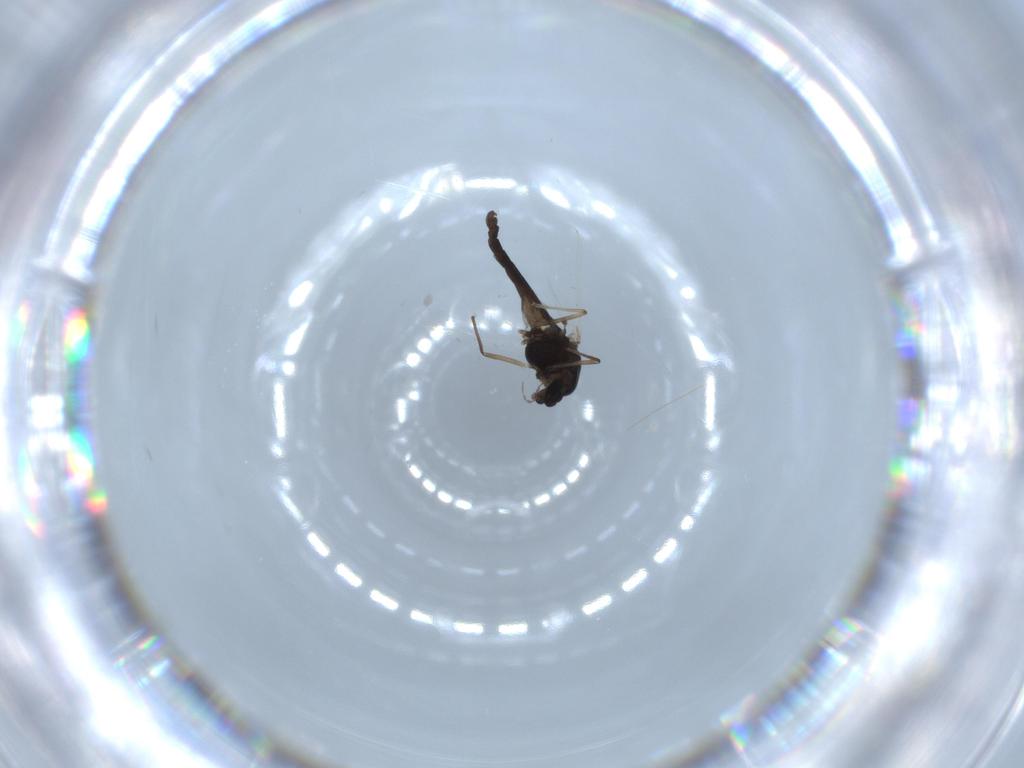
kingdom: Animalia
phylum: Arthropoda
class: Insecta
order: Diptera
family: Chironomidae
